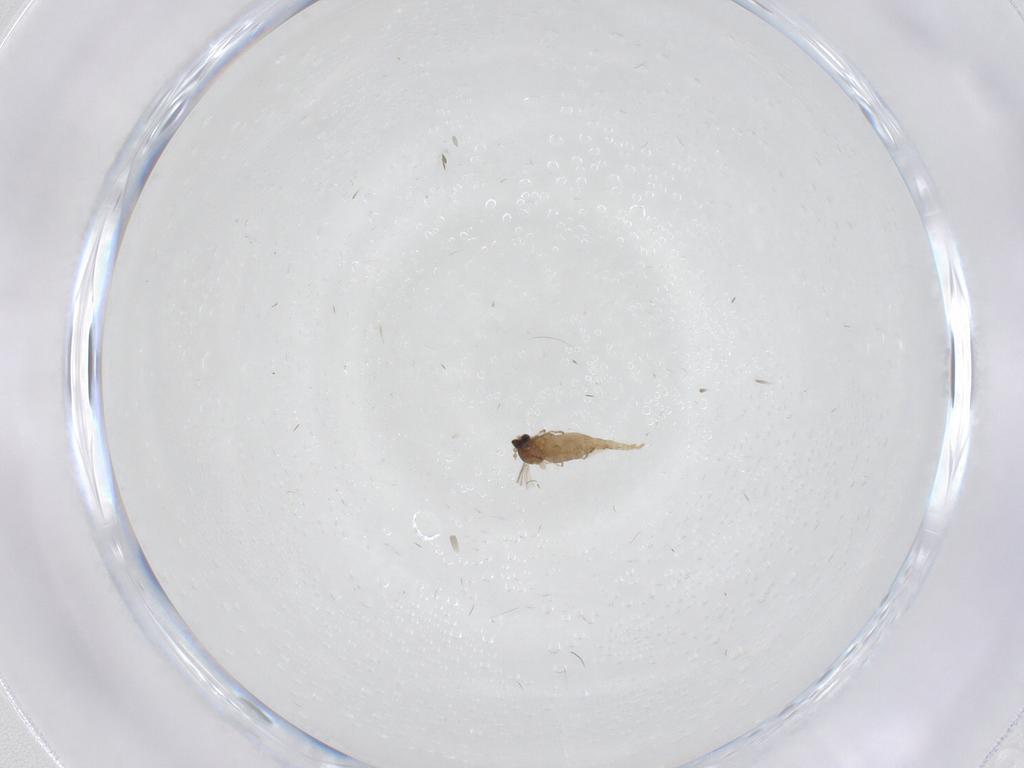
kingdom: Animalia
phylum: Arthropoda
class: Insecta
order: Diptera
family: Cecidomyiidae
